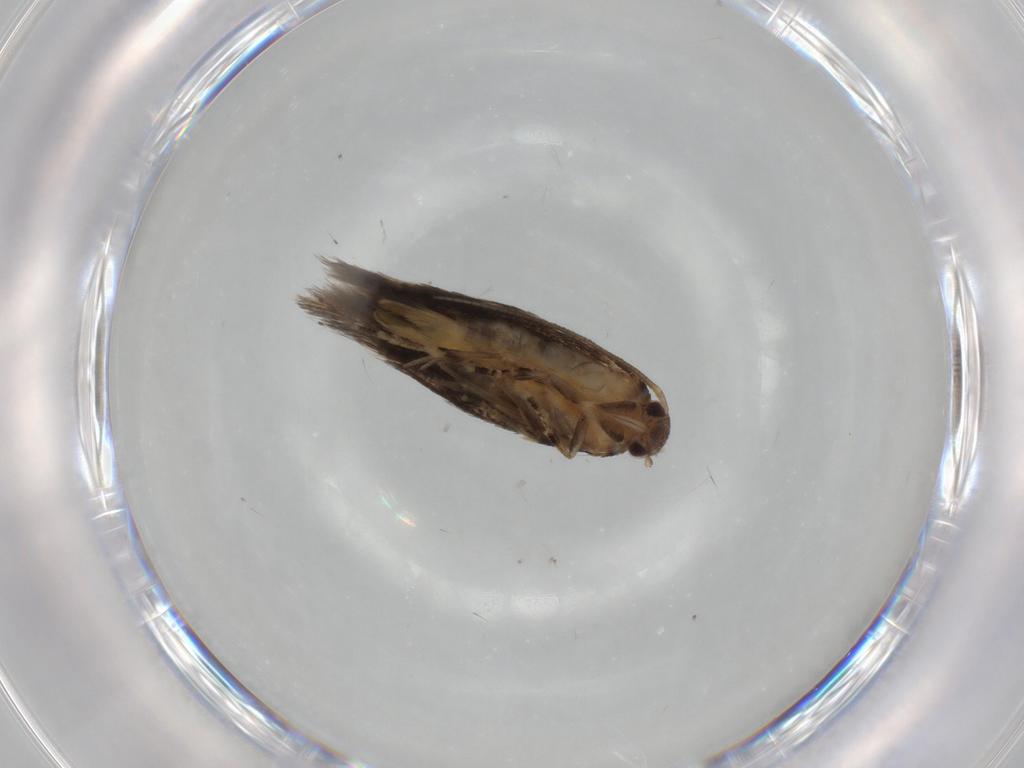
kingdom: Animalia
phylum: Arthropoda
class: Insecta
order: Lepidoptera
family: Elachistidae
